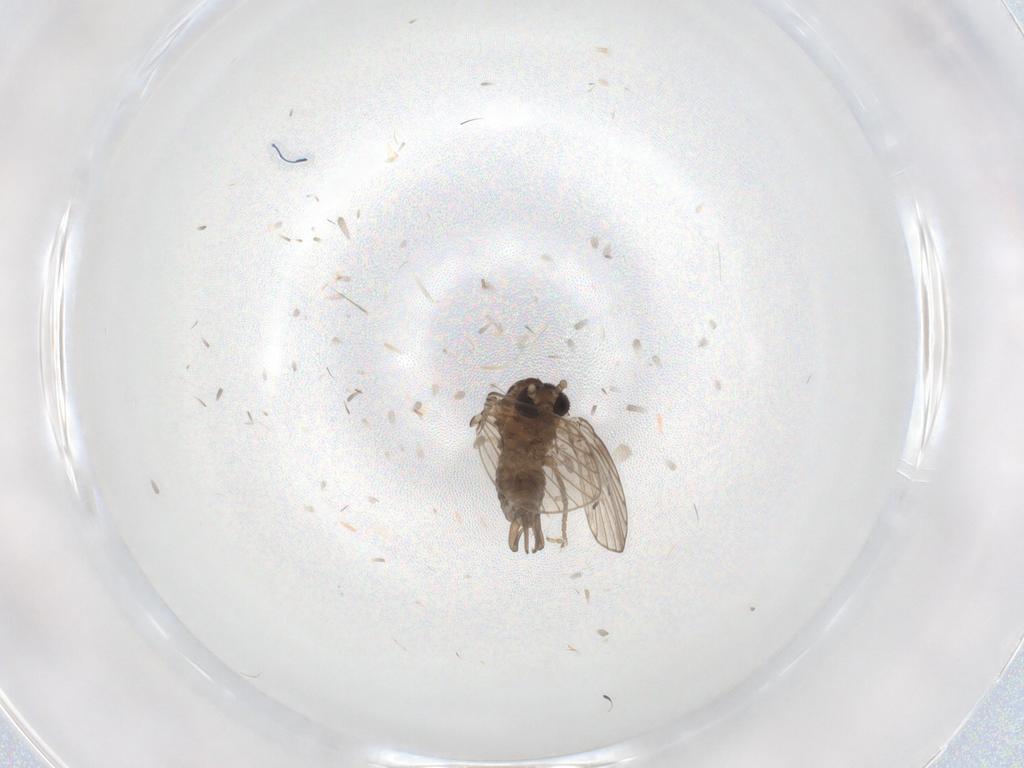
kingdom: Animalia
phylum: Arthropoda
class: Insecta
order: Diptera
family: Psychodidae
